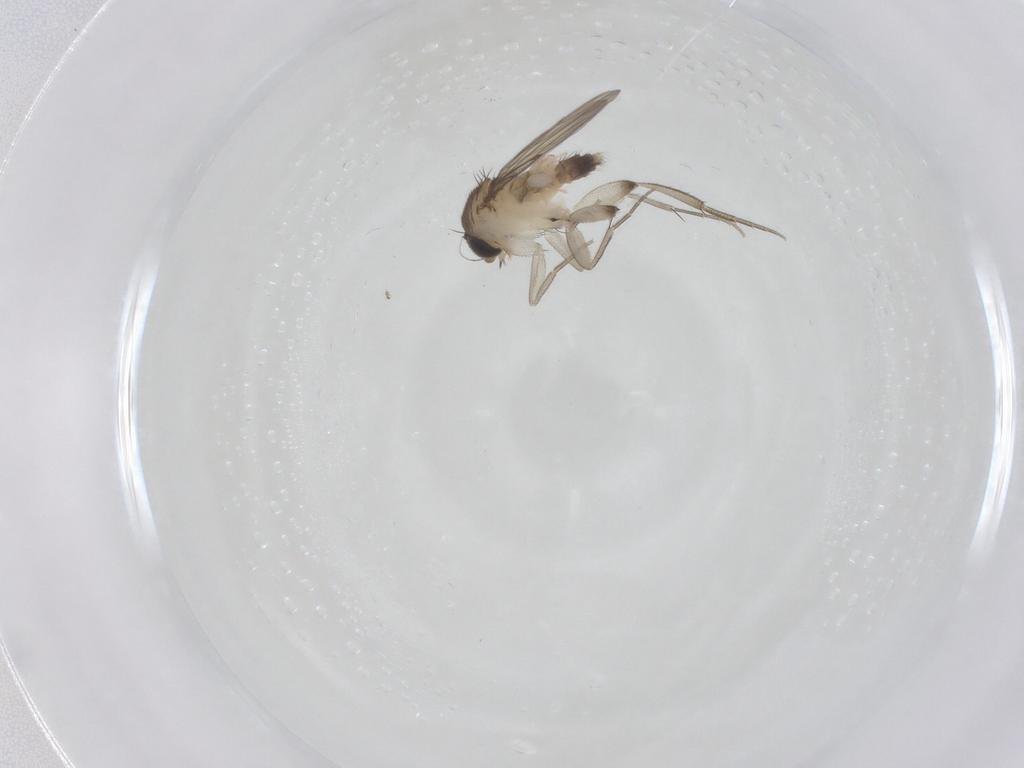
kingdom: Animalia
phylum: Arthropoda
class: Insecta
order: Diptera
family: Phoridae
